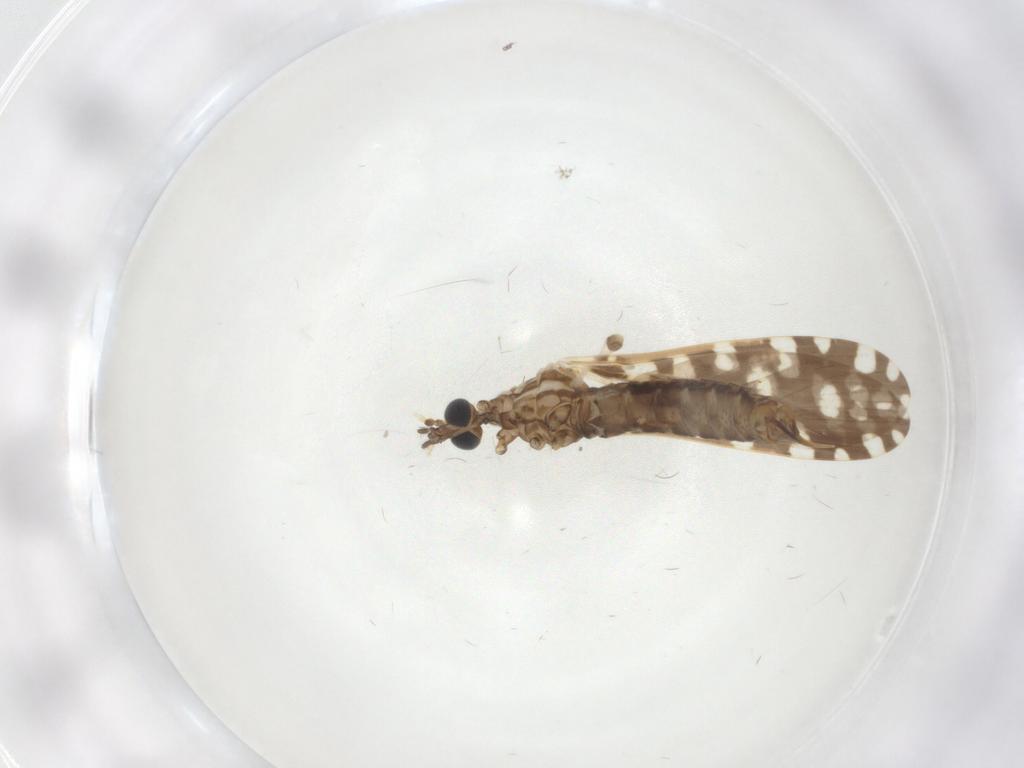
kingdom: Animalia
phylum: Arthropoda
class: Insecta
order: Diptera
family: Limoniidae
